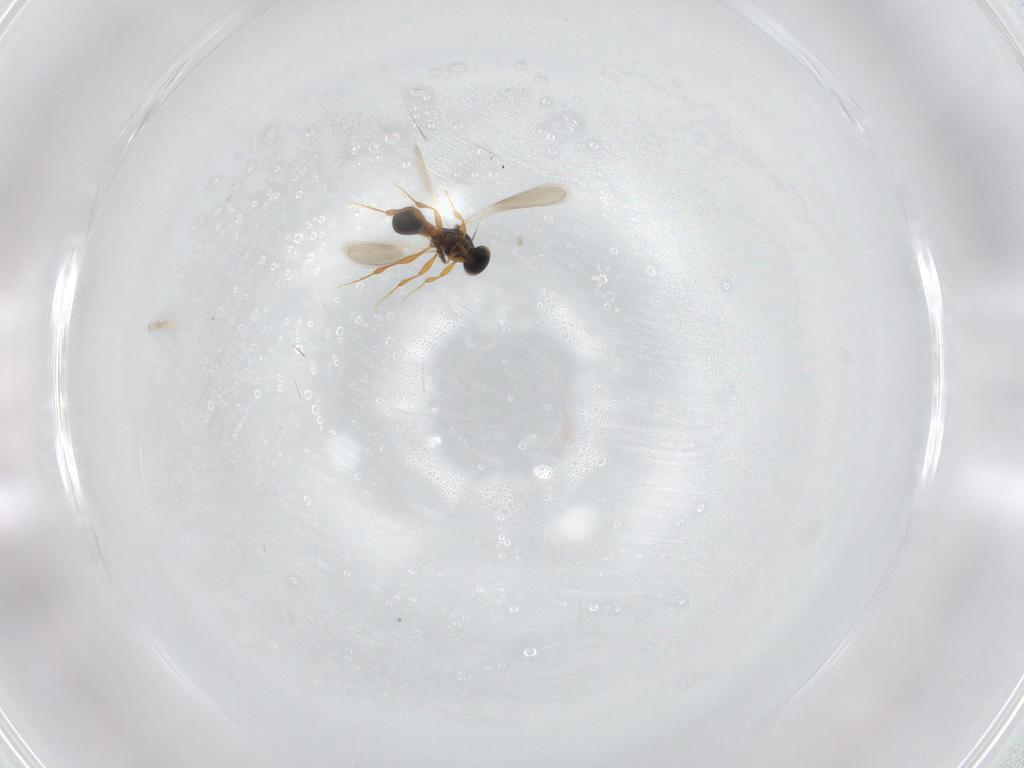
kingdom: Animalia
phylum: Arthropoda
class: Insecta
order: Hymenoptera
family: Platygastridae
